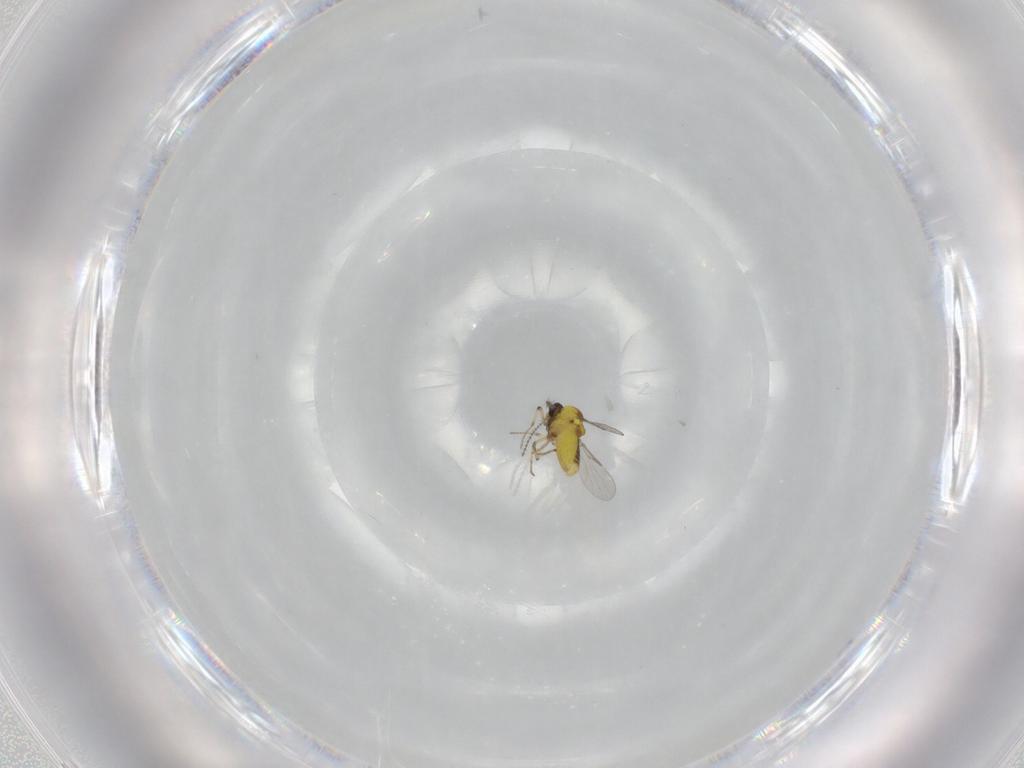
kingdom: Animalia
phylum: Arthropoda
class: Insecta
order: Diptera
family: Ceratopogonidae
